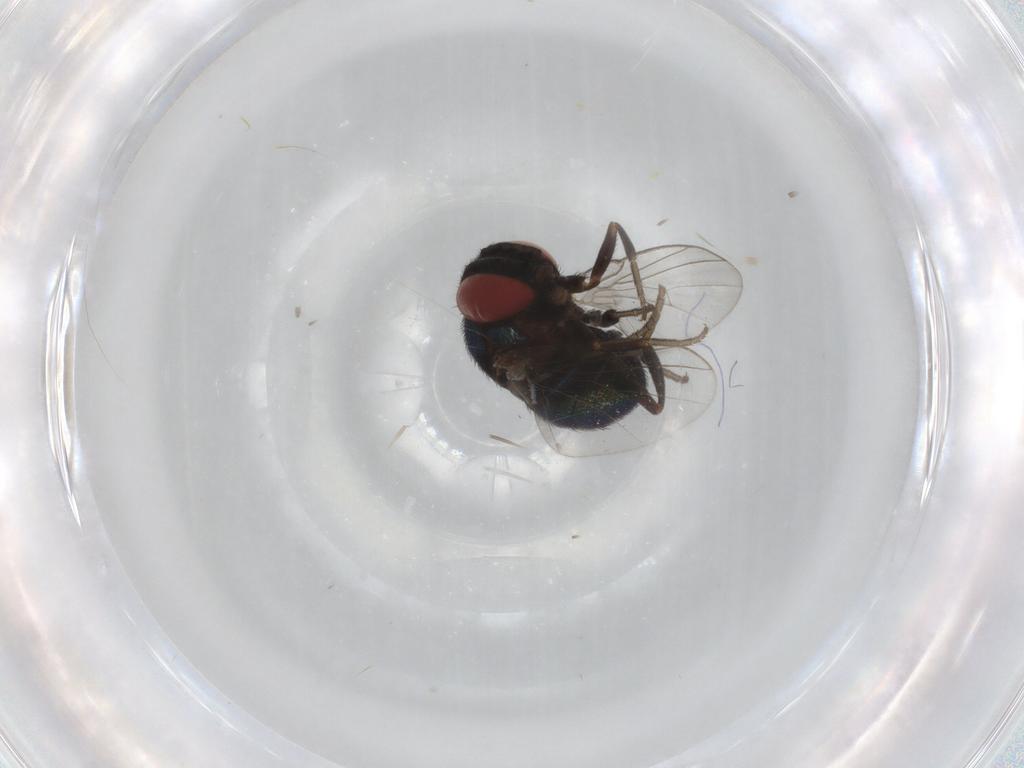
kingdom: Animalia
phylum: Arthropoda
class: Insecta
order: Diptera
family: Cryptochetidae
